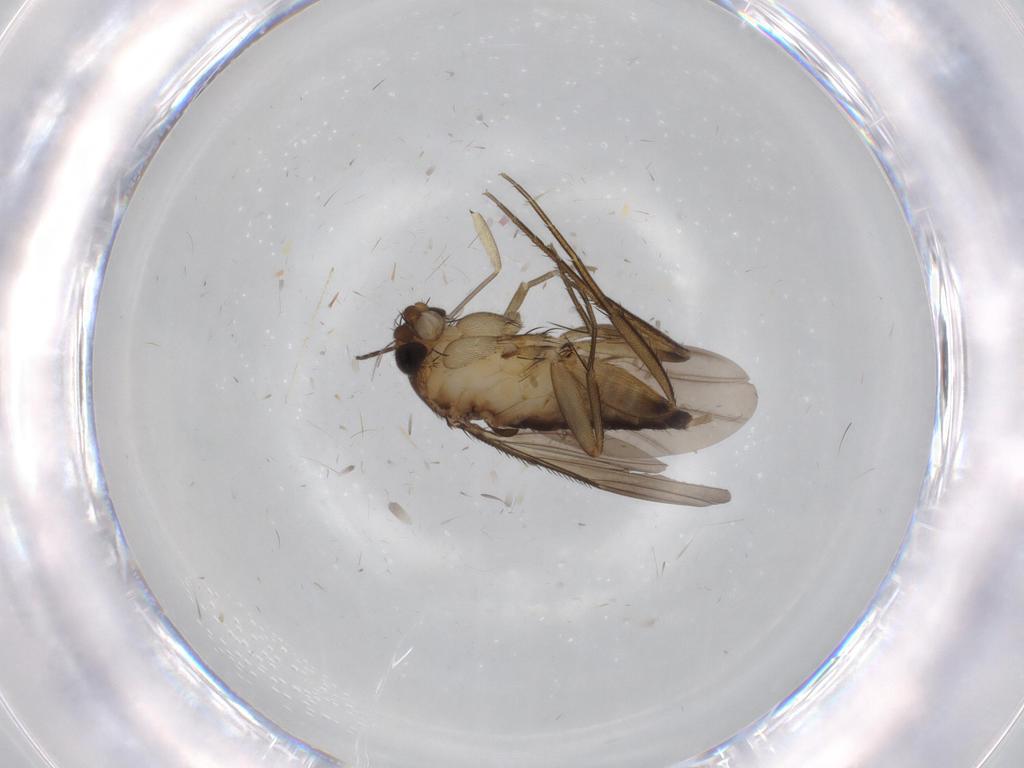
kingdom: Animalia
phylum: Arthropoda
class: Insecta
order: Diptera
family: Phoridae
